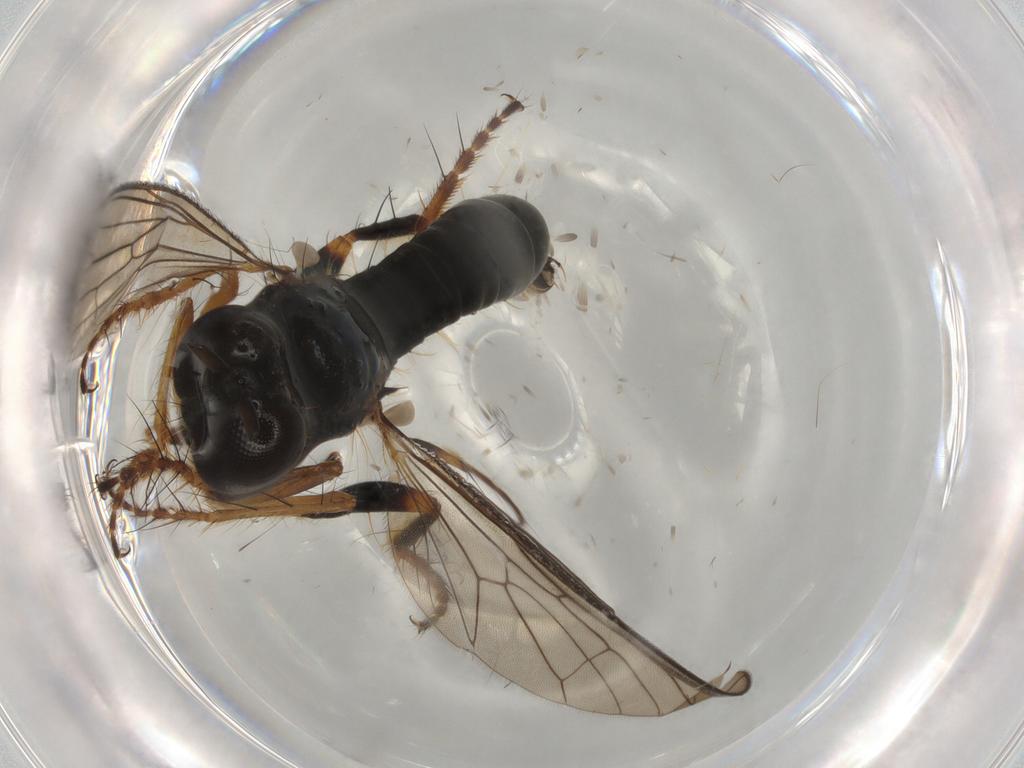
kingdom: Animalia
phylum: Arthropoda
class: Insecta
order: Diptera
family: Asilidae
